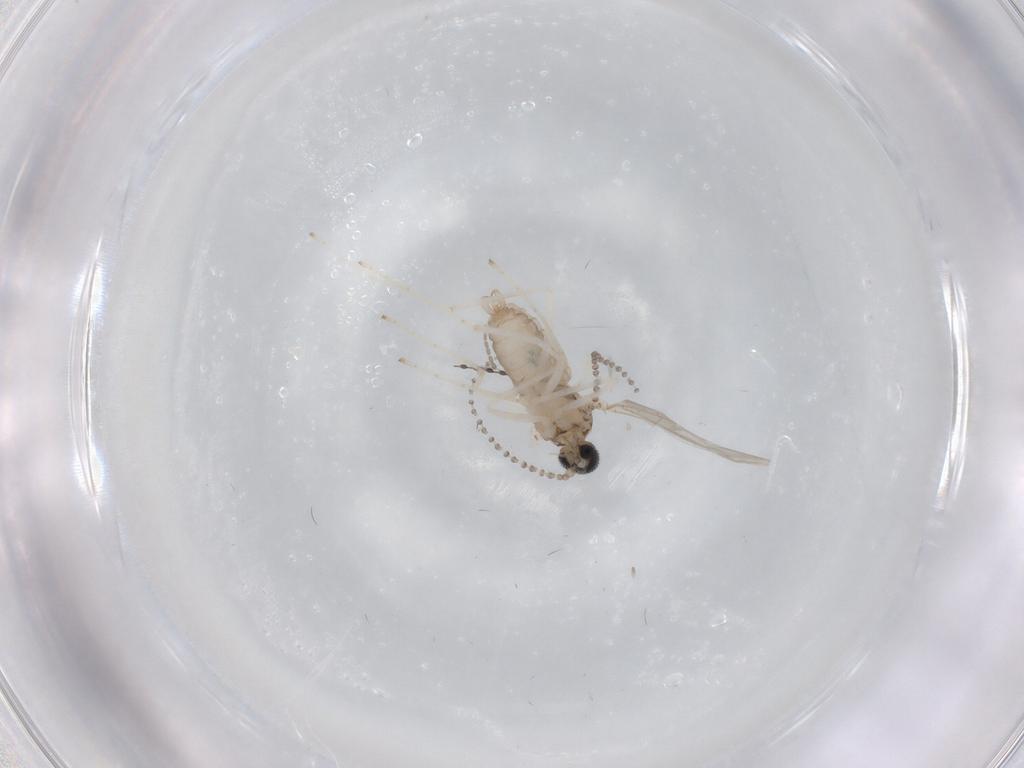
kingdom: Animalia
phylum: Arthropoda
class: Insecta
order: Diptera
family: Cecidomyiidae
